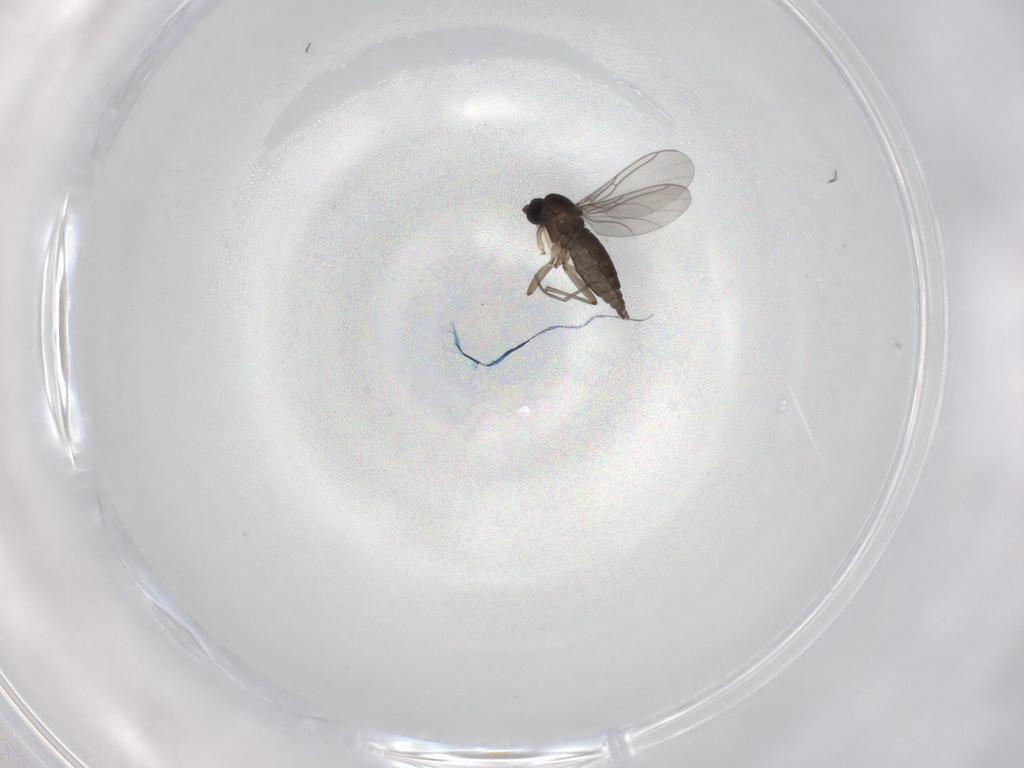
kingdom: Animalia
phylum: Arthropoda
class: Insecta
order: Diptera
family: Sciaridae
